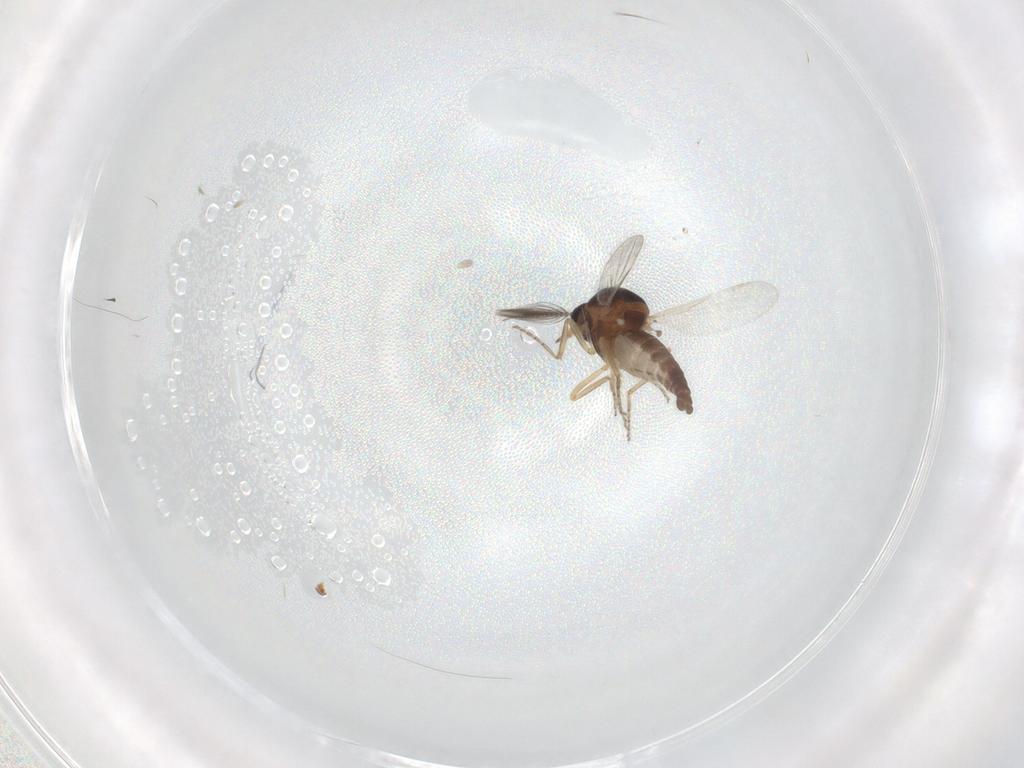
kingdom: Animalia
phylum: Arthropoda
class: Insecta
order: Diptera
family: Ceratopogonidae
